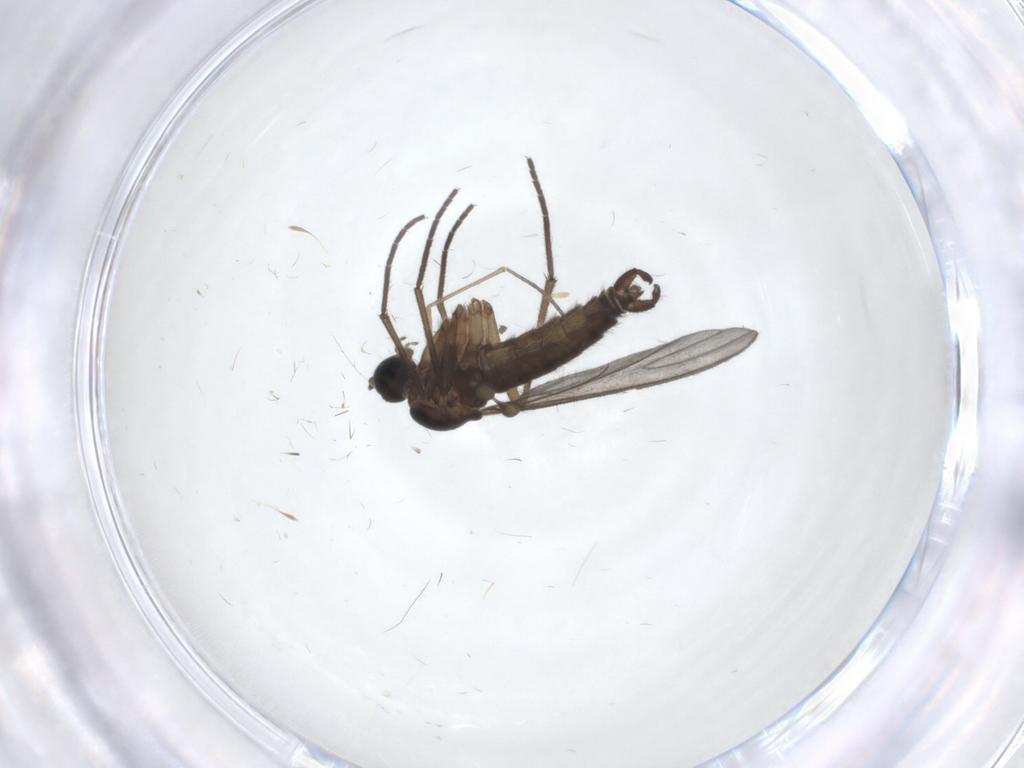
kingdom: Animalia
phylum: Arthropoda
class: Insecta
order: Diptera
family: Sciaridae
